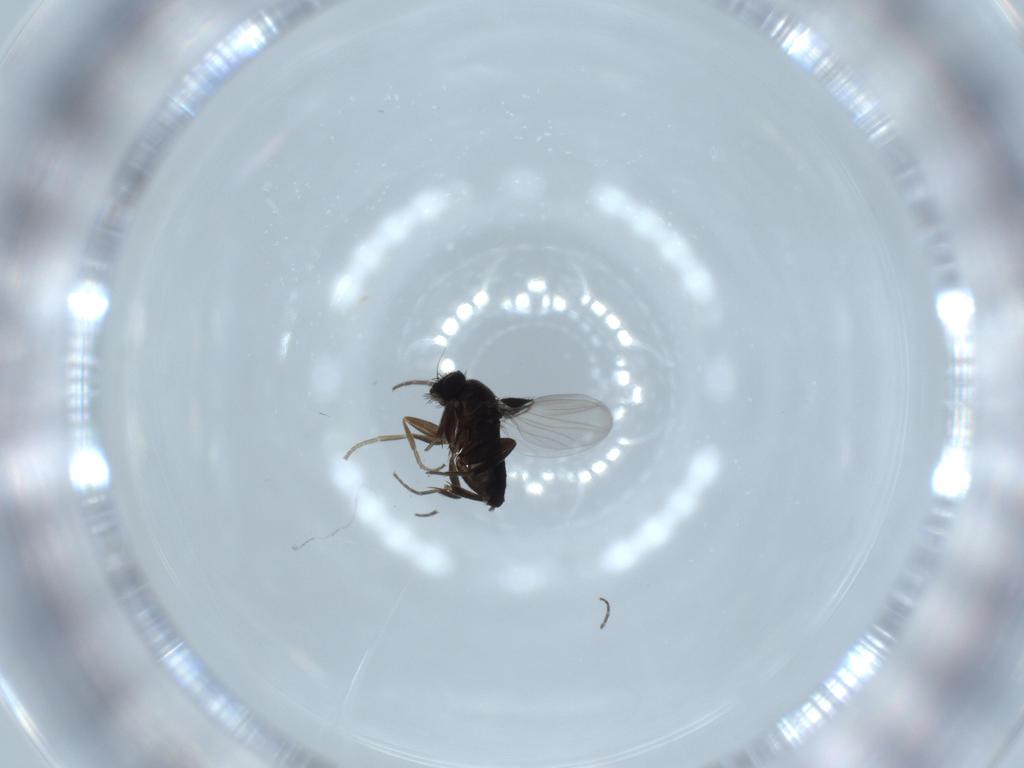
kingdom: Animalia
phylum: Arthropoda
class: Insecta
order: Diptera
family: Phoridae
